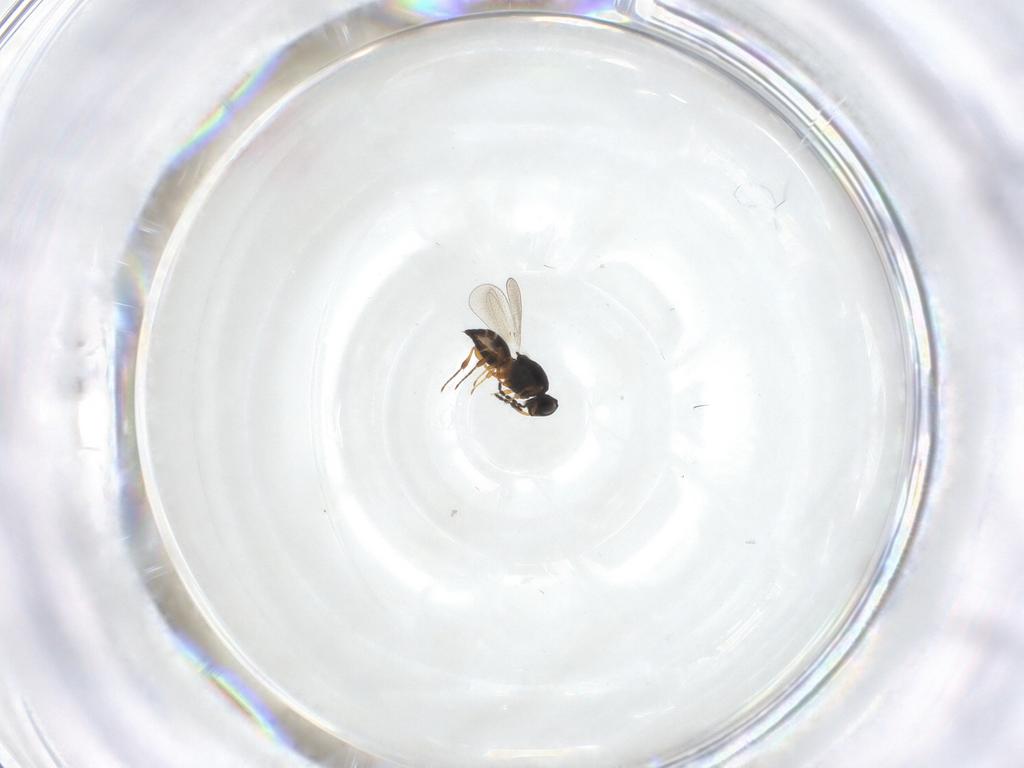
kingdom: Animalia
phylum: Arthropoda
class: Insecta
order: Hymenoptera
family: Platygastridae
